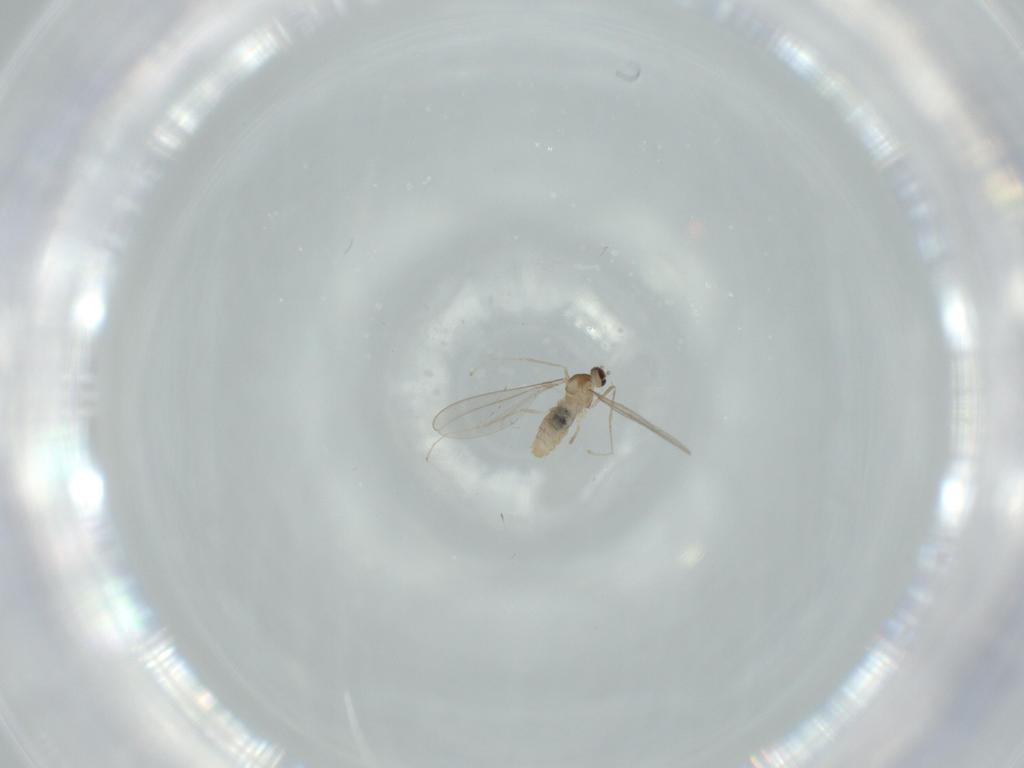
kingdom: Animalia
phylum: Arthropoda
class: Insecta
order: Diptera
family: Cecidomyiidae
